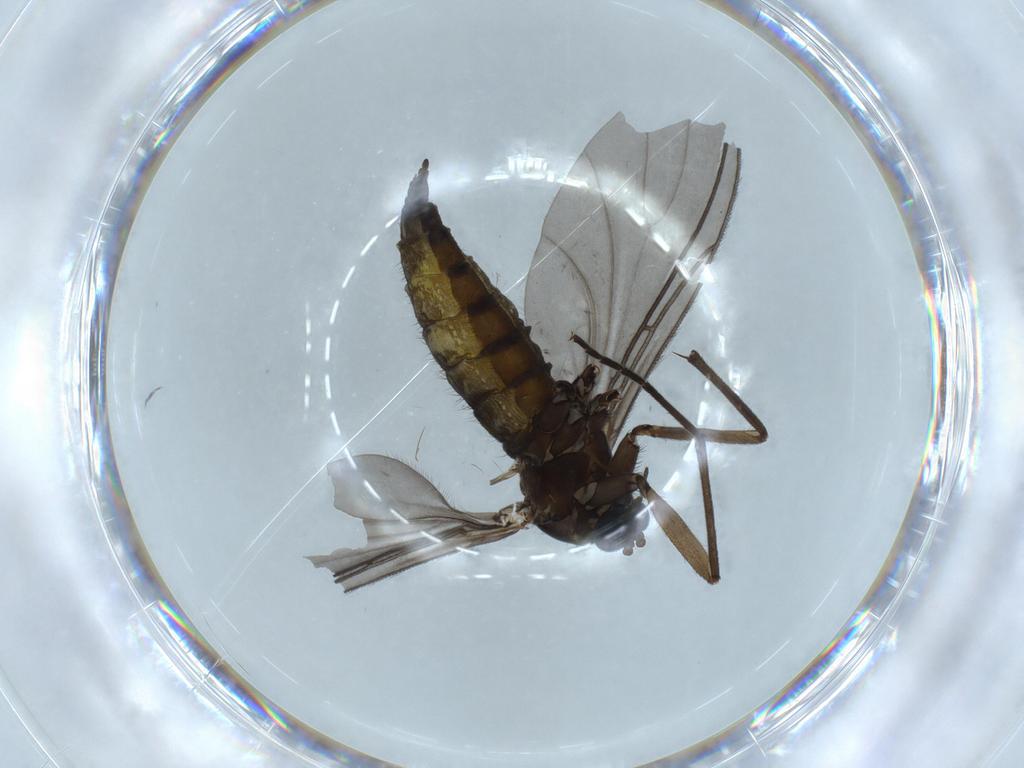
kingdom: Animalia
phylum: Arthropoda
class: Insecta
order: Diptera
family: Sciaridae
